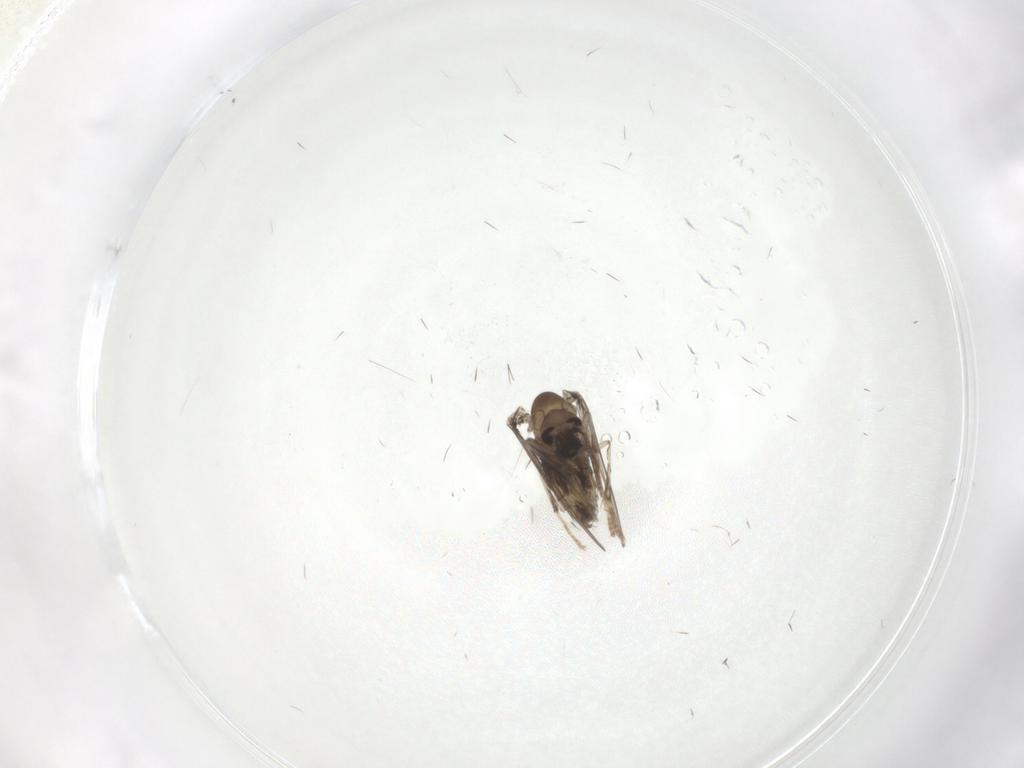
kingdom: Animalia
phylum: Arthropoda
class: Insecta
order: Diptera
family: Psychodidae
